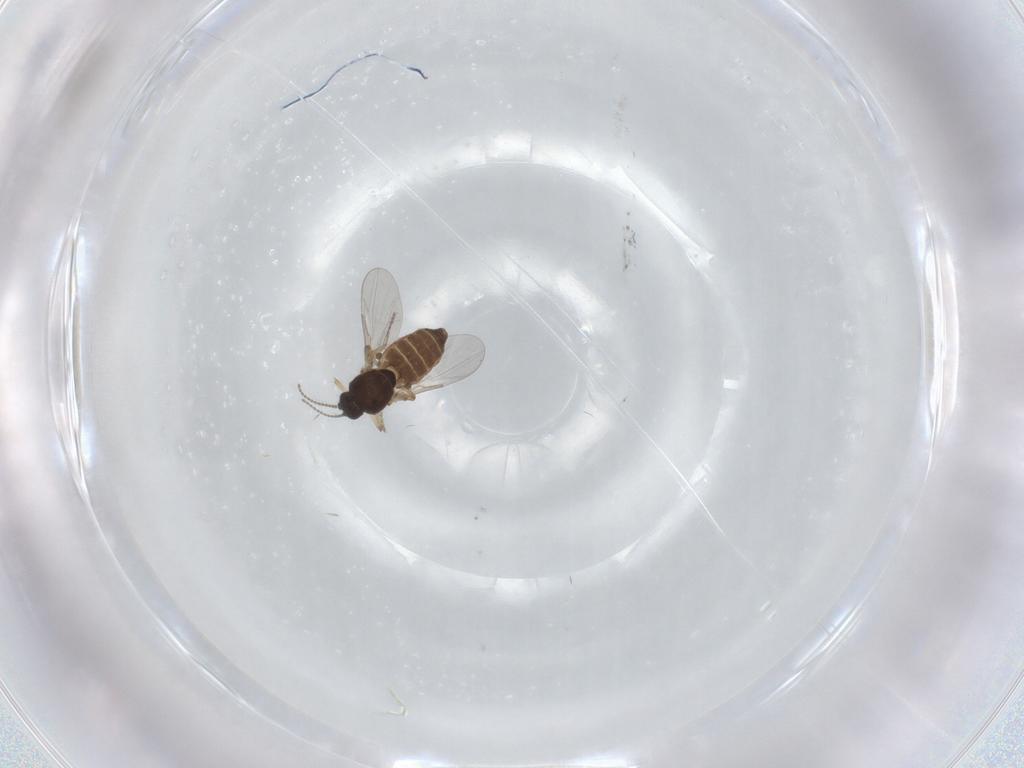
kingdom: Animalia
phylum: Arthropoda
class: Insecta
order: Diptera
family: Ceratopogonidae
